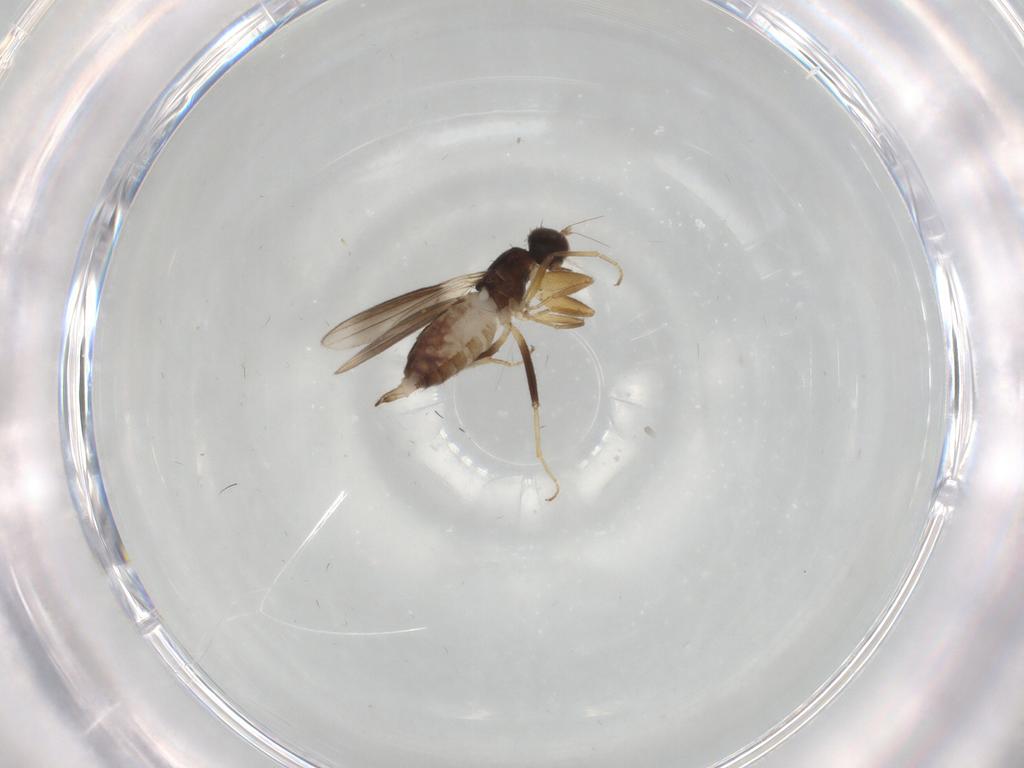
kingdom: Animalia
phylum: Arthropoda
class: Insecta
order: Diptera
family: Hybotidae
